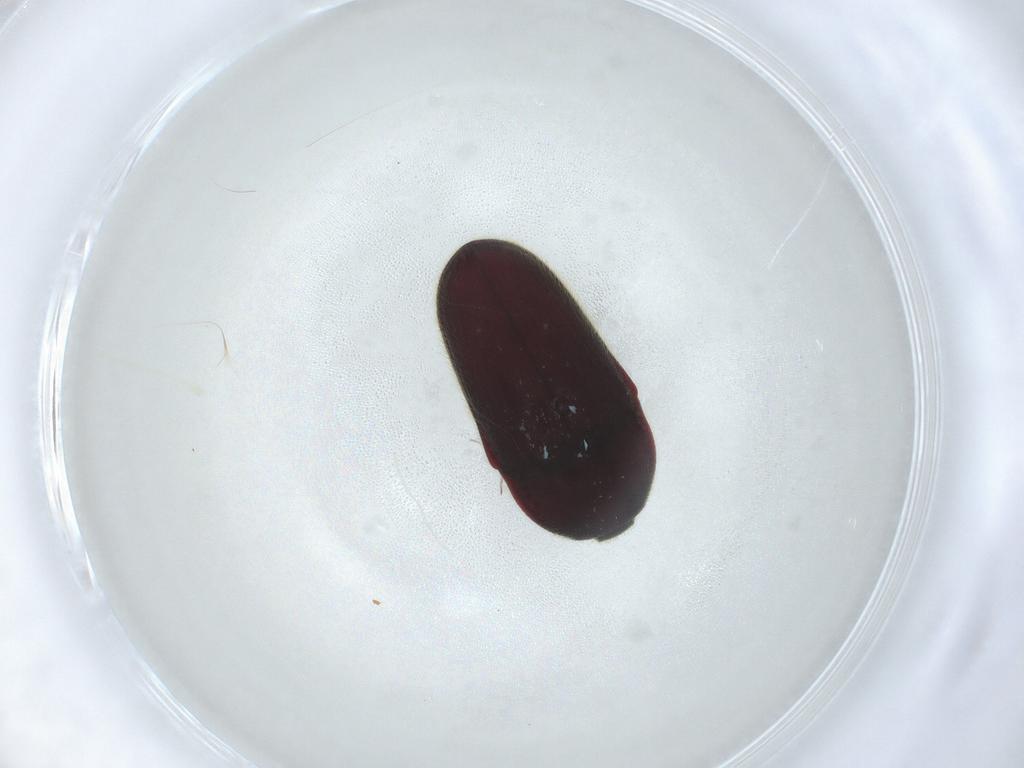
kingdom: Animalia
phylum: Arthropoda
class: Insecta
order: Coleoptera
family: Throscidae
